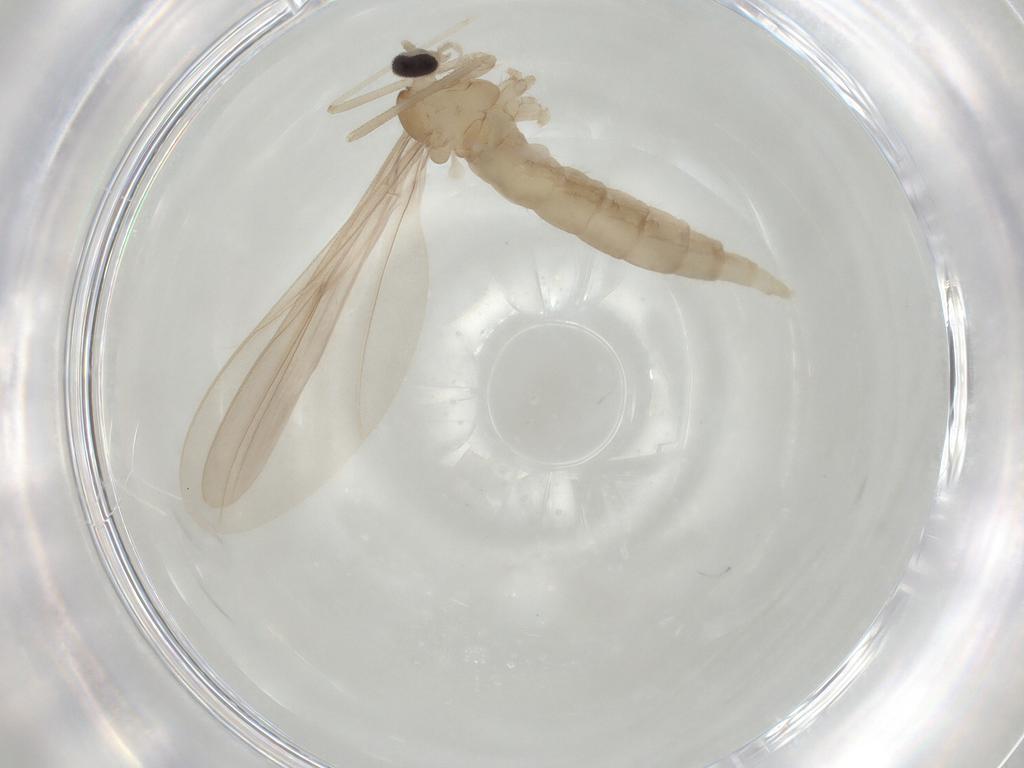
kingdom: Animalia
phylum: Arthropoda
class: Insecta
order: Diptera
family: Cecidomyiidae
